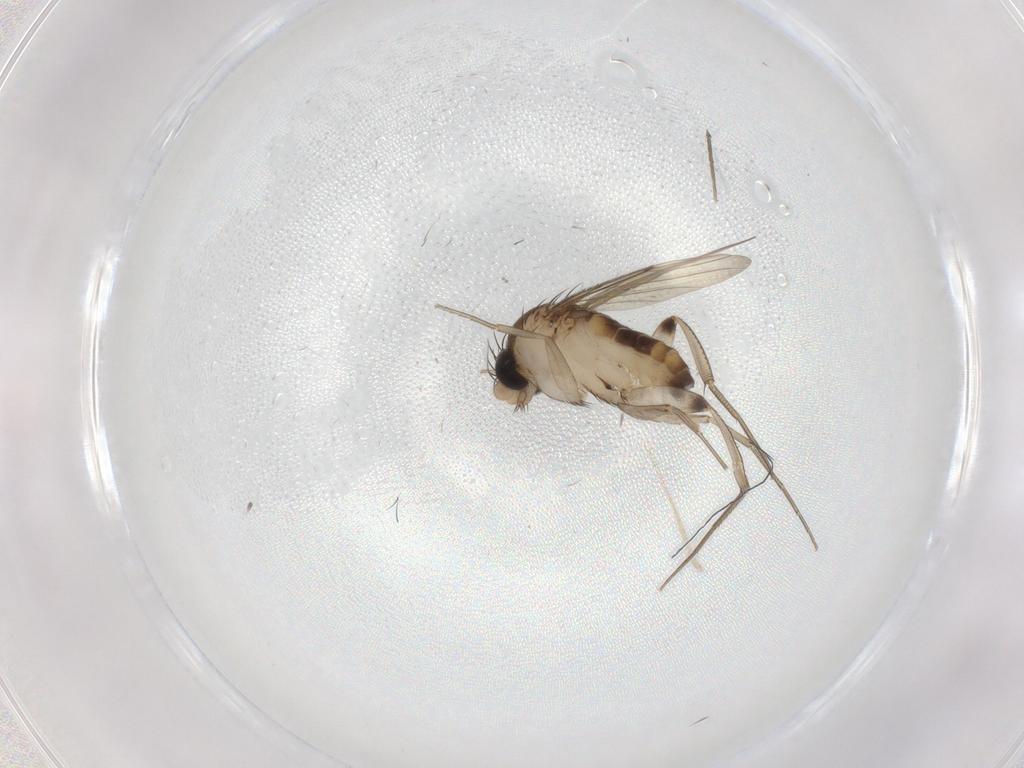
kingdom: Animalia
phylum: Arthropoda
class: Insecta
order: Diptera
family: Phoridae
